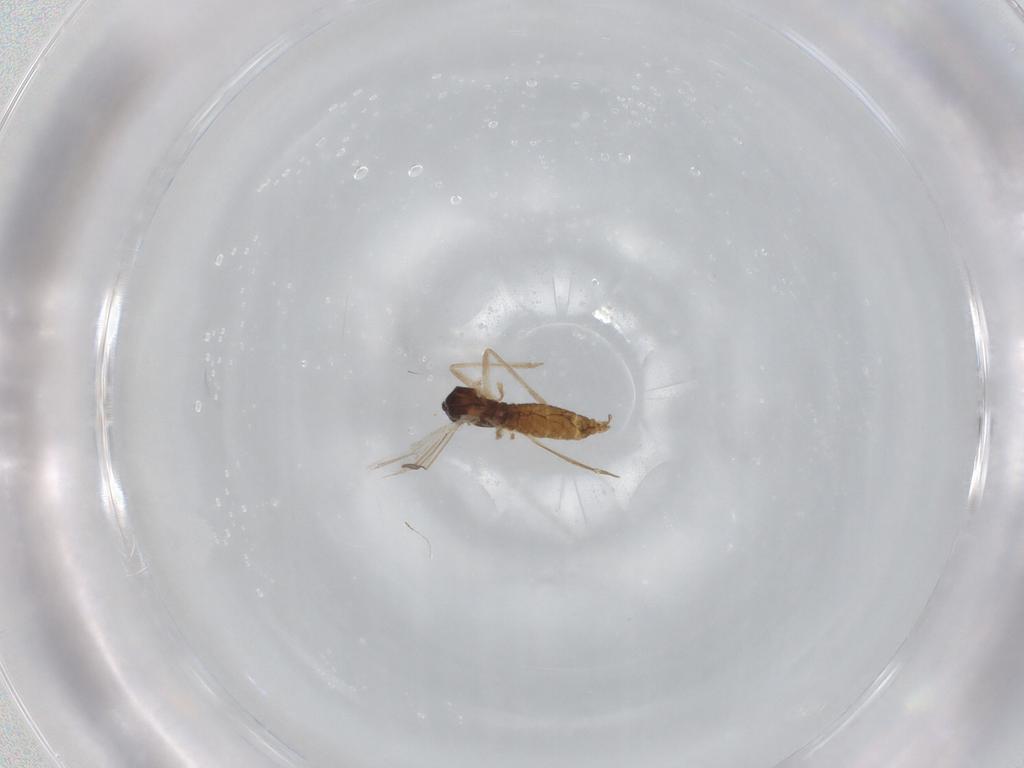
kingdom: Animalia
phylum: Arthropoda
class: Insecta
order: Diptera
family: Cecidomyiidae
